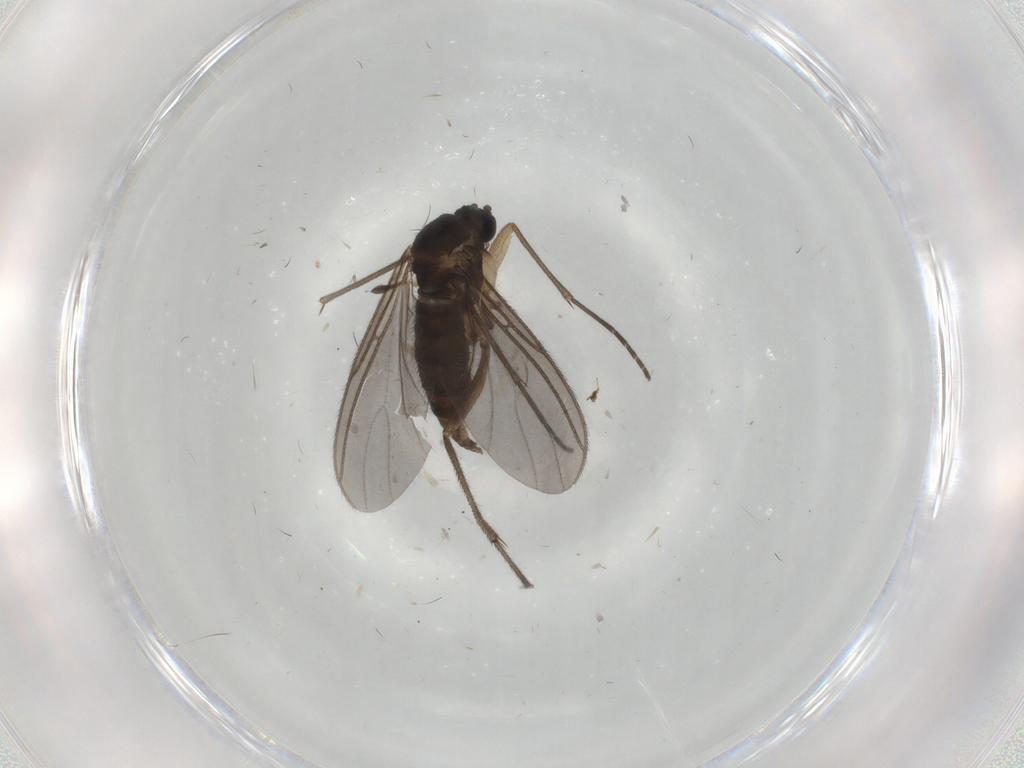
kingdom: Animalia
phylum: Arthropoda
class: Insecta
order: Diptera
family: Sciaridae
